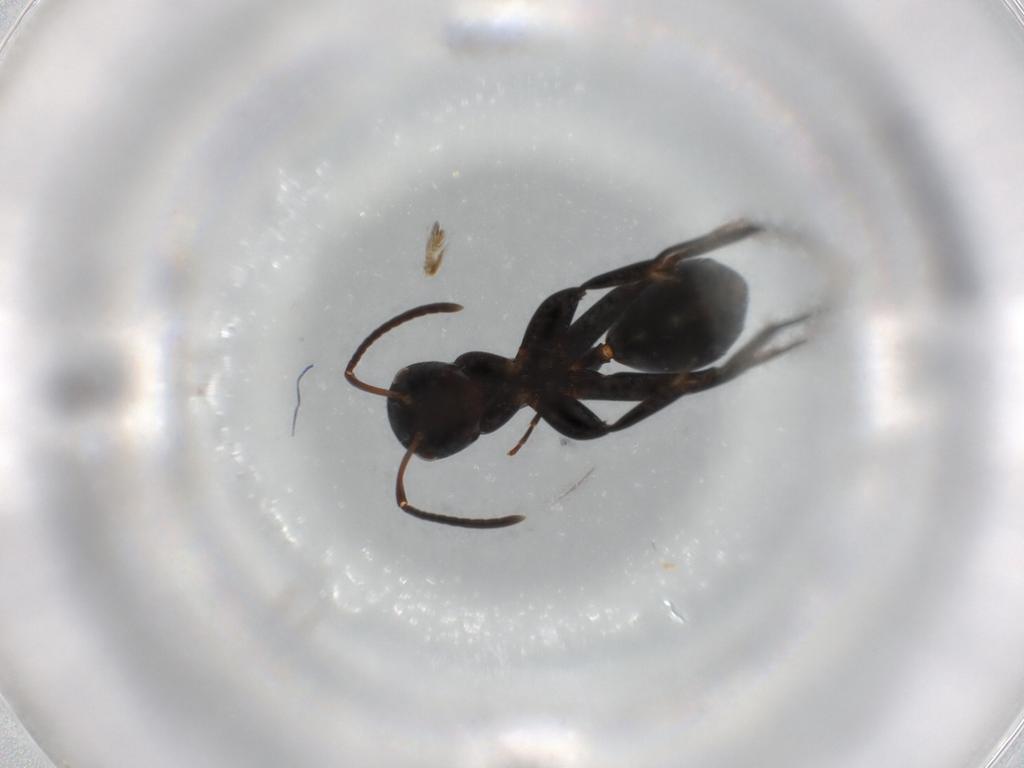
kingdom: Animalia
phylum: Arthropoda
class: Insecta
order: Hymenoptera
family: Formicidae
